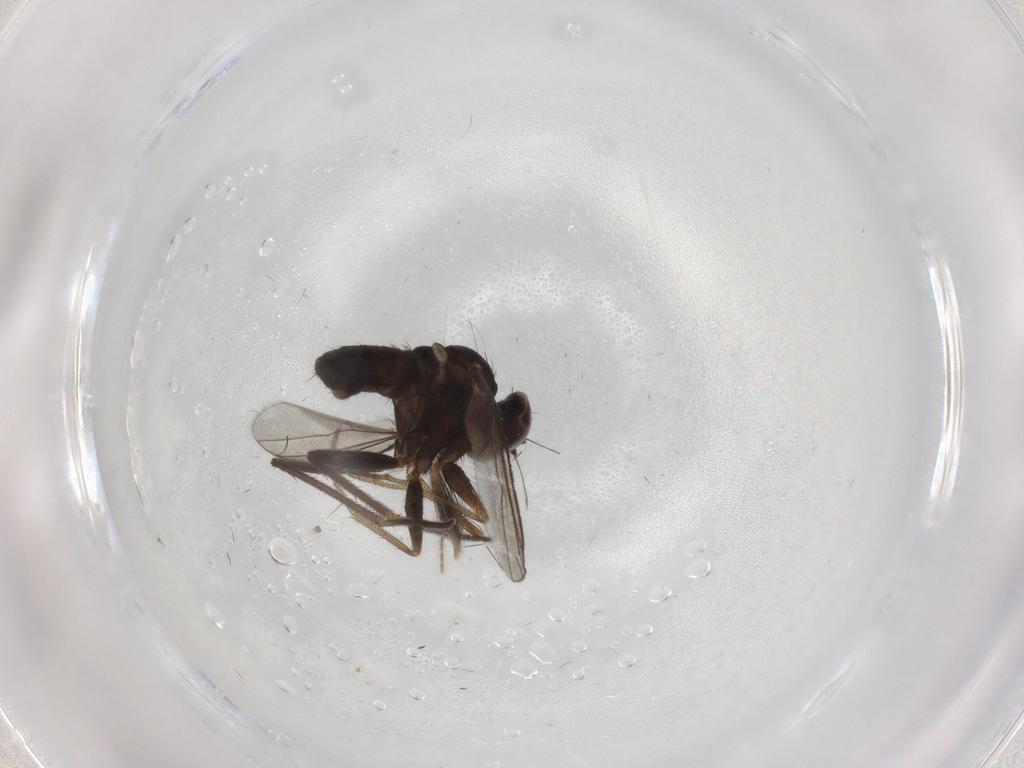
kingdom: Animalia
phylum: Arthropoda
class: Insecta
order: Diptera
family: Ceratopogonidae
